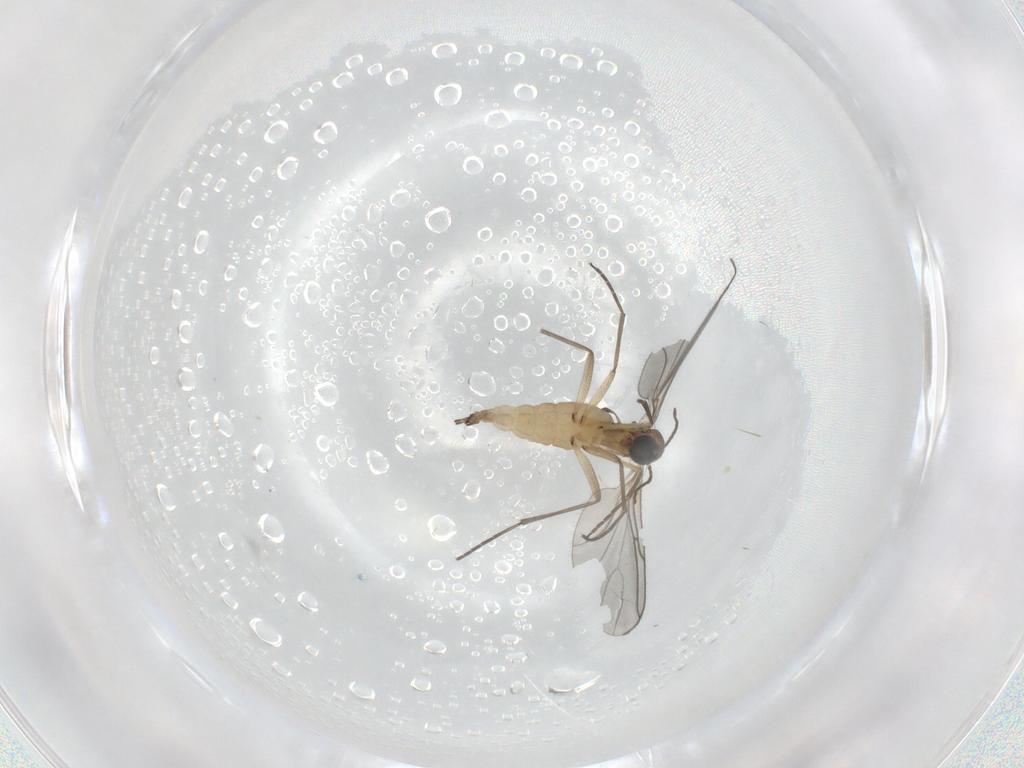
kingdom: Animalia
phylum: Arthropoda
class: Insecta
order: Diptera
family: Sciaridae
